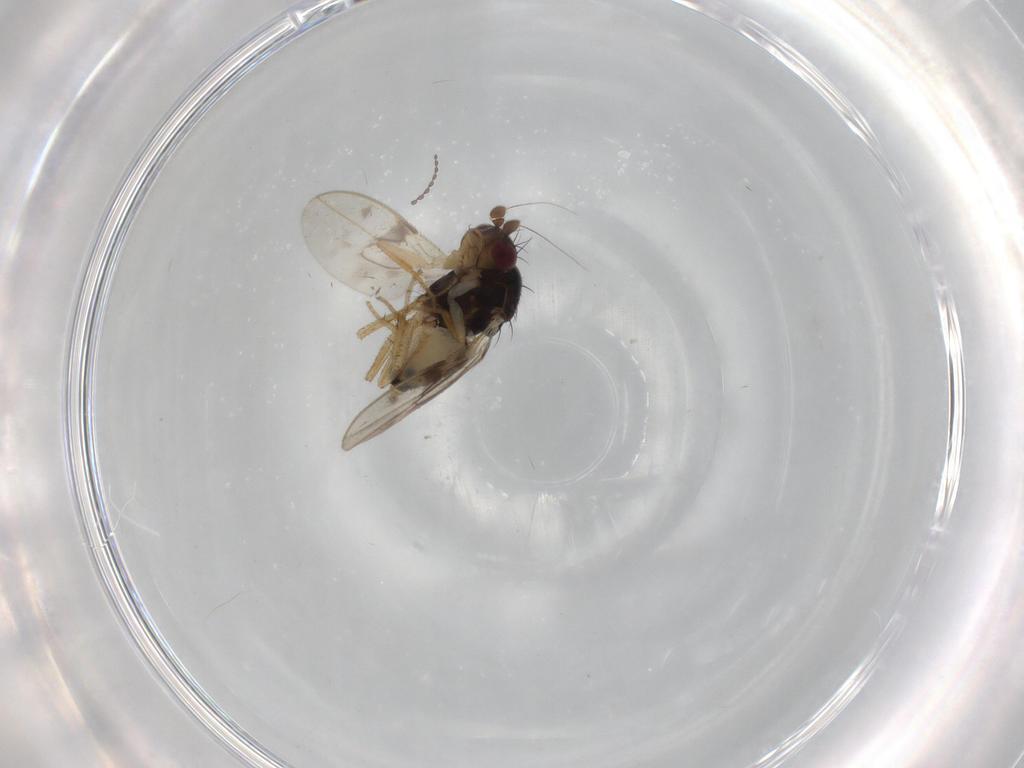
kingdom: Animalia
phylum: Arthropoda
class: Insecta
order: Diptera
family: Sphaeroceridae
